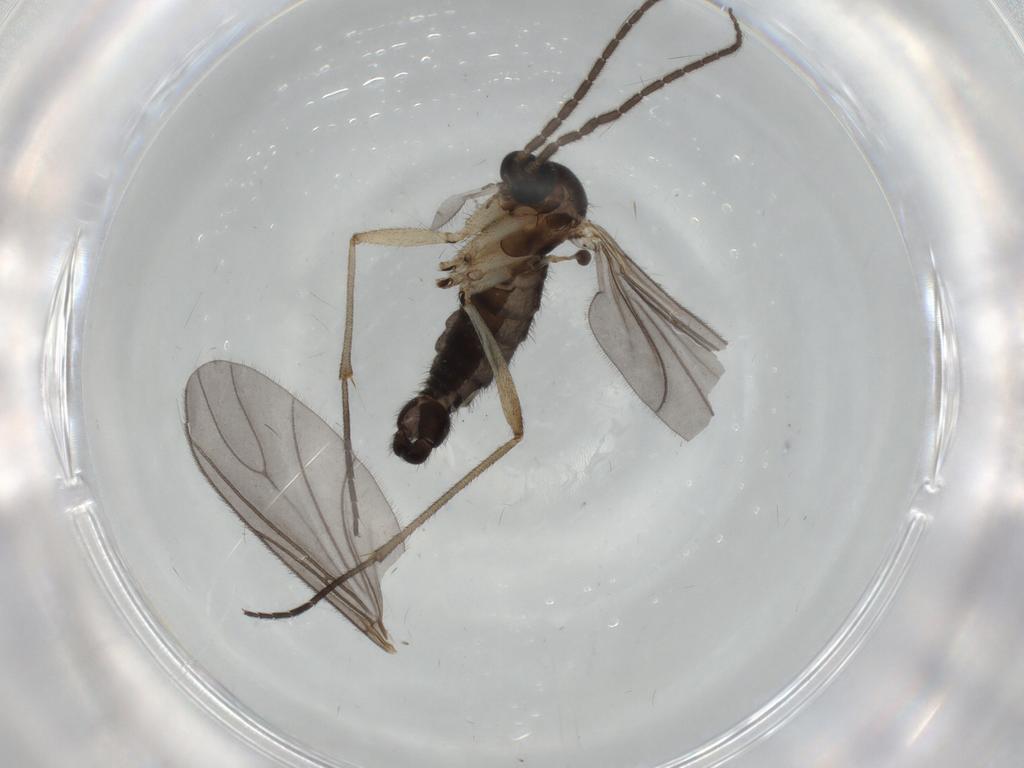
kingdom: Animalia
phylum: Arthropoda
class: Insecta
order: Diptera
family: Sciaridae
